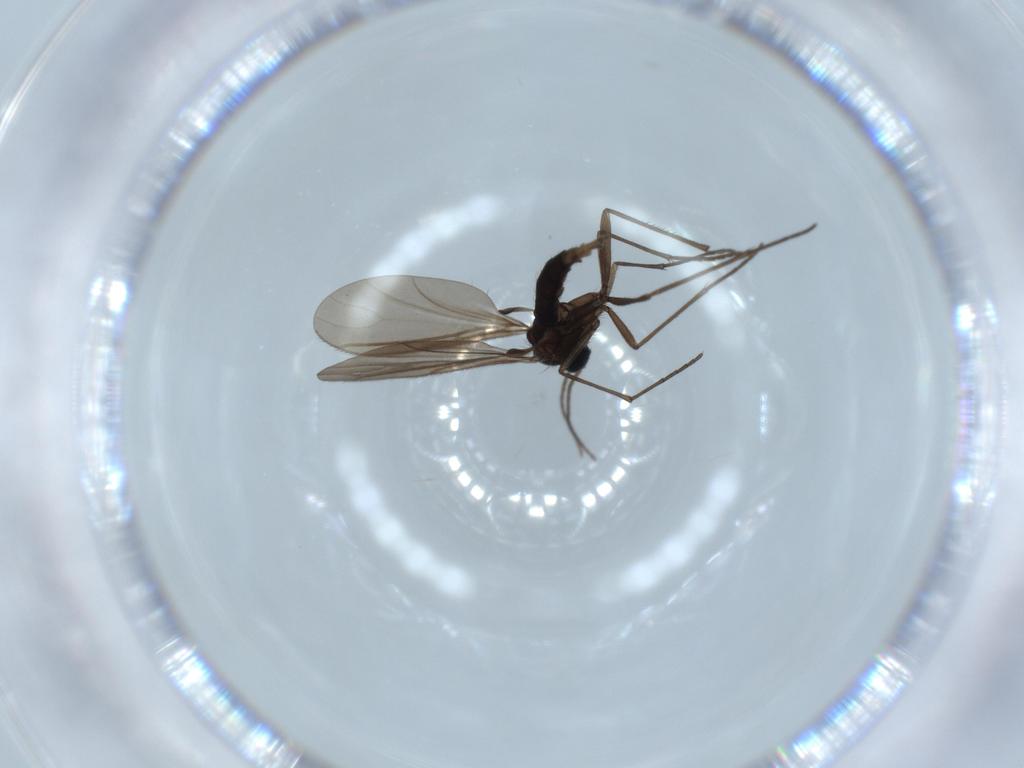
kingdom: Animalia
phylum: Arthropoda
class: Insecta
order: Diptera
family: Sciaridae
